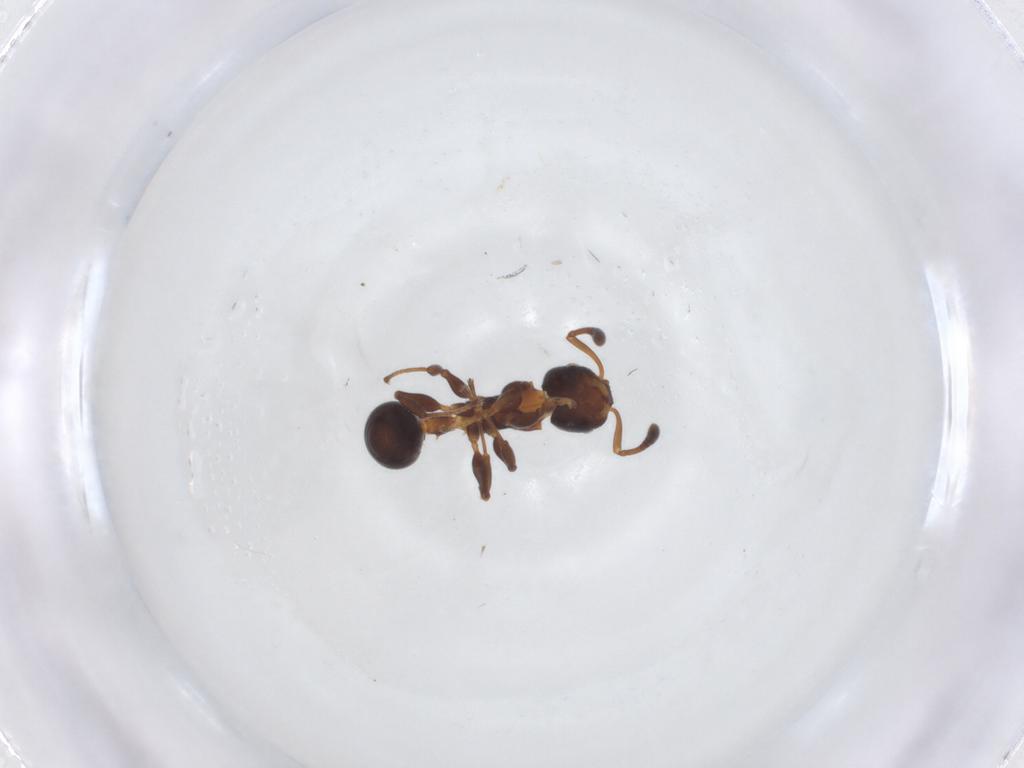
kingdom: Animalia
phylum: Arthropoda
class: Insecta
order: Hymenoptera
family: Formicidae
